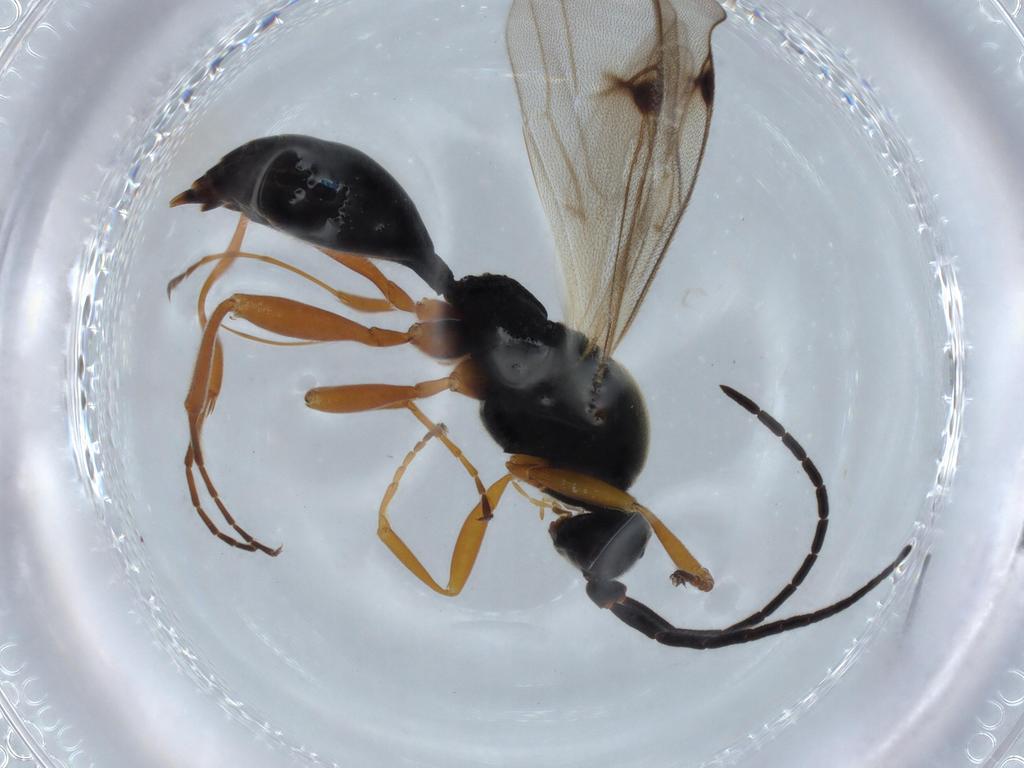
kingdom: Animalia
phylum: Arthropoda
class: Insecta
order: Hymenoptera
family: Proctotrupidae
